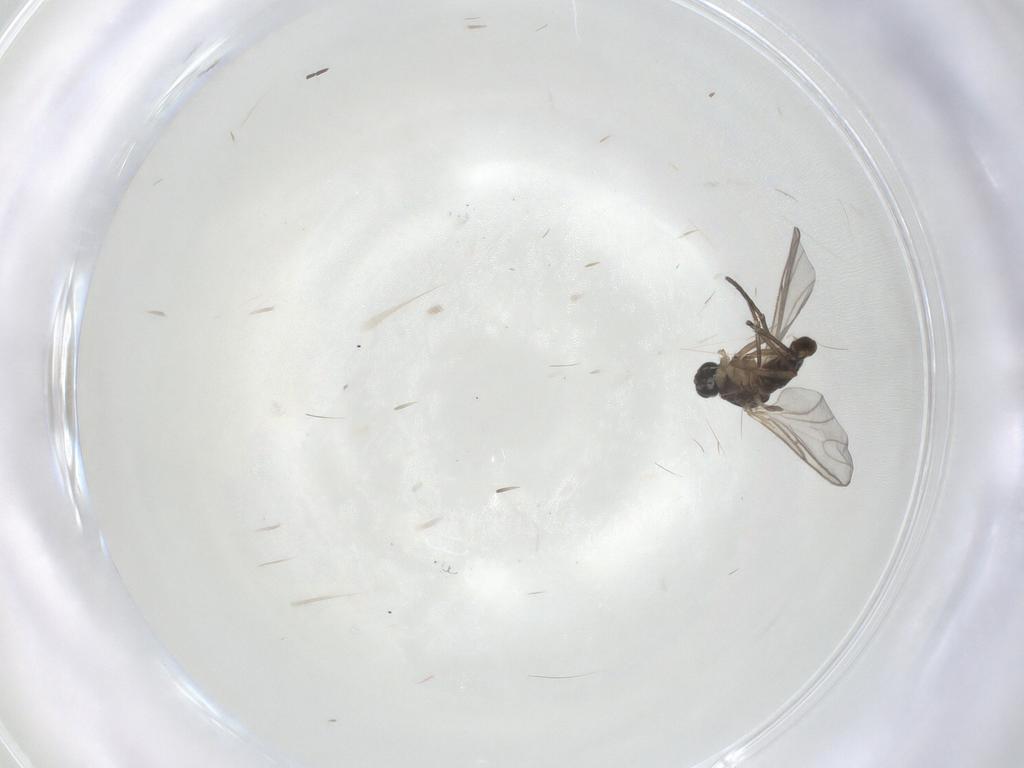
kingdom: Animalia
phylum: Arthropoda
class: Insecta
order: Diptera
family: Sciaridae
